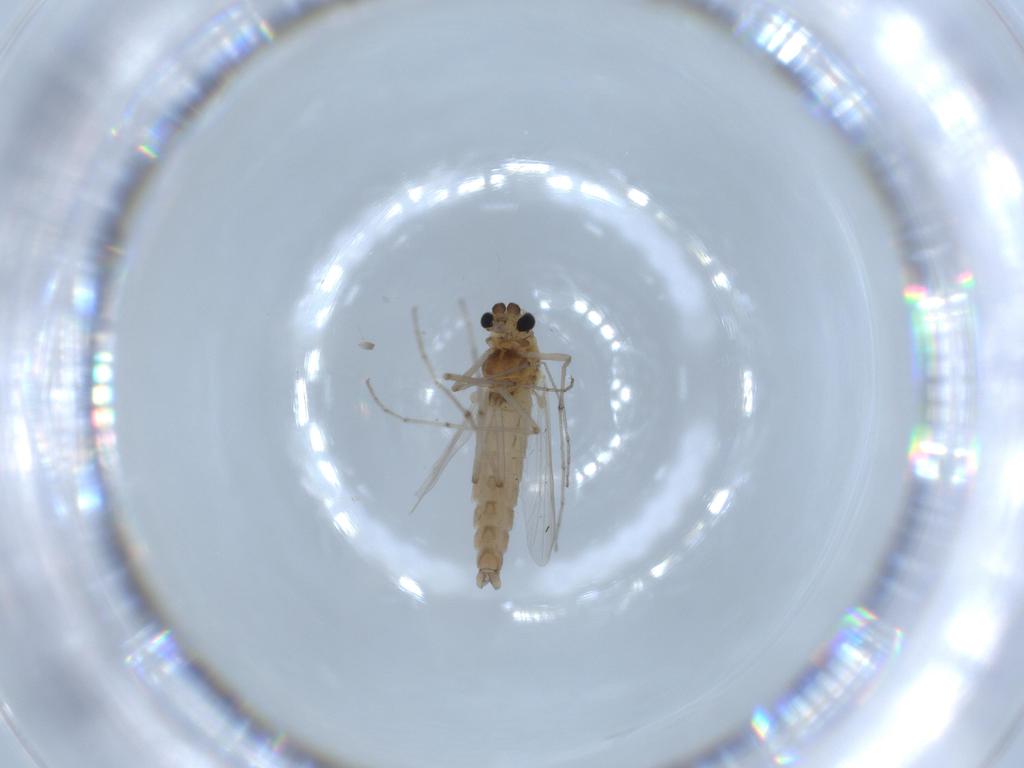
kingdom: Animalia
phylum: Arthropoda
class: Insecta
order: Diptera
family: Chironomidae
